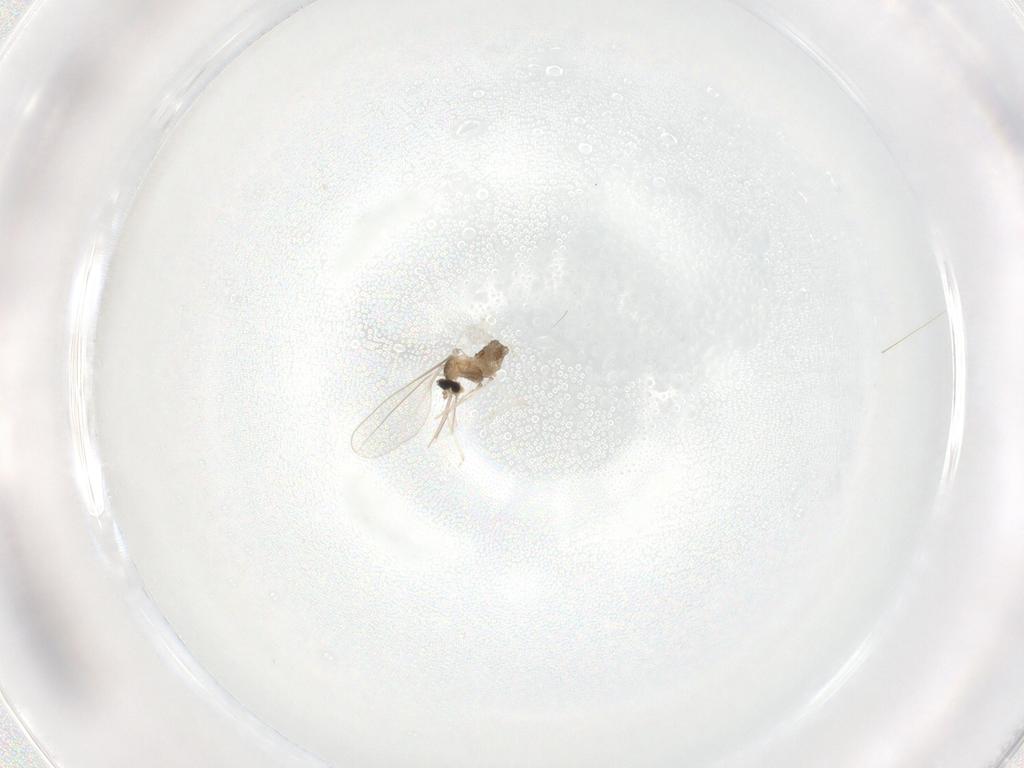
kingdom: Animalia
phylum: Arthropoda
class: Insecta
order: Diptera
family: Cecidomyiidae
